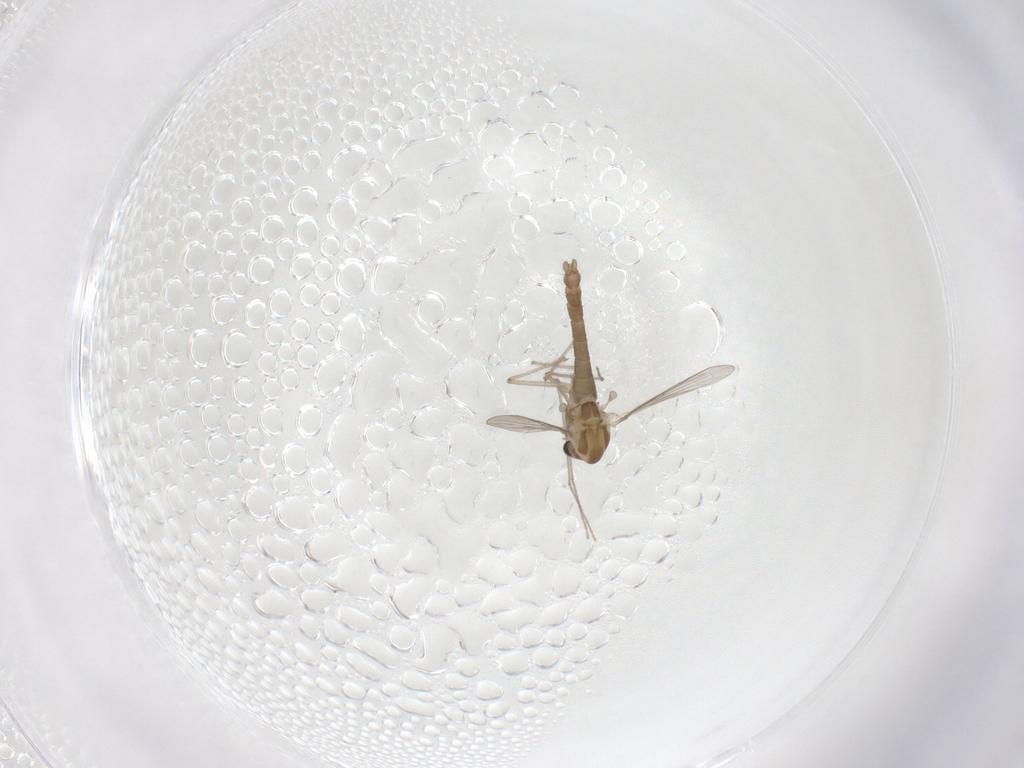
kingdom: Animalia
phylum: Arthropoda
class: Insecta
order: Diptera
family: Chironomidae
